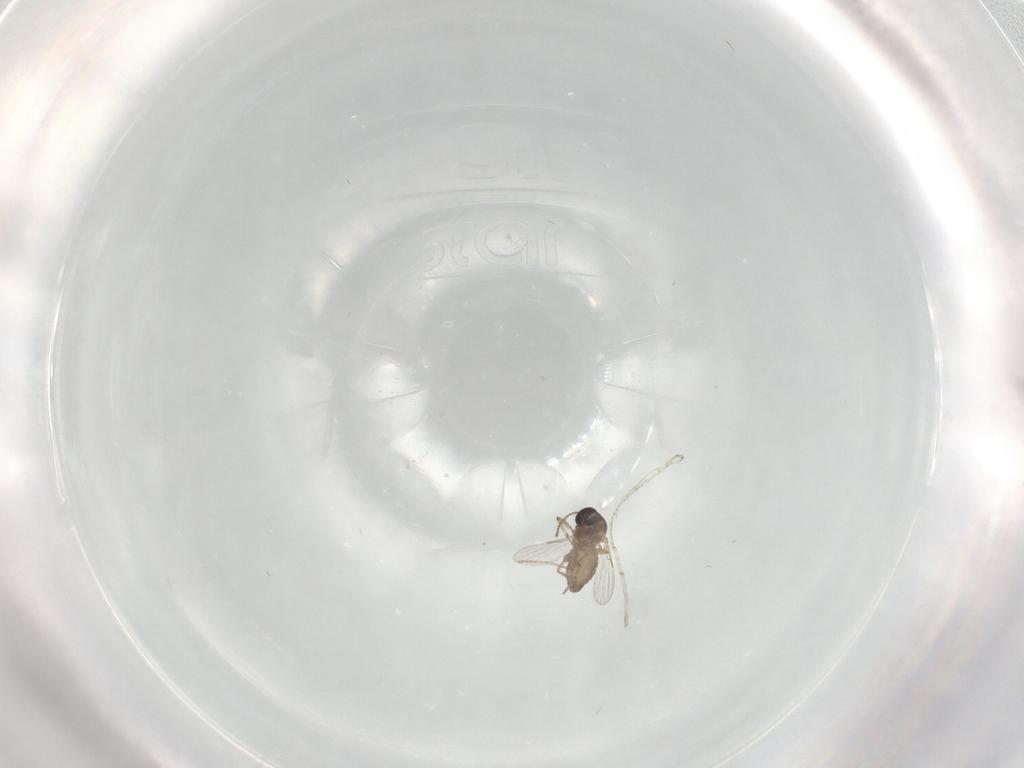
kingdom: Animalia
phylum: Arthropoda
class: Insecta
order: Diptera
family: Ceratopogonidae
